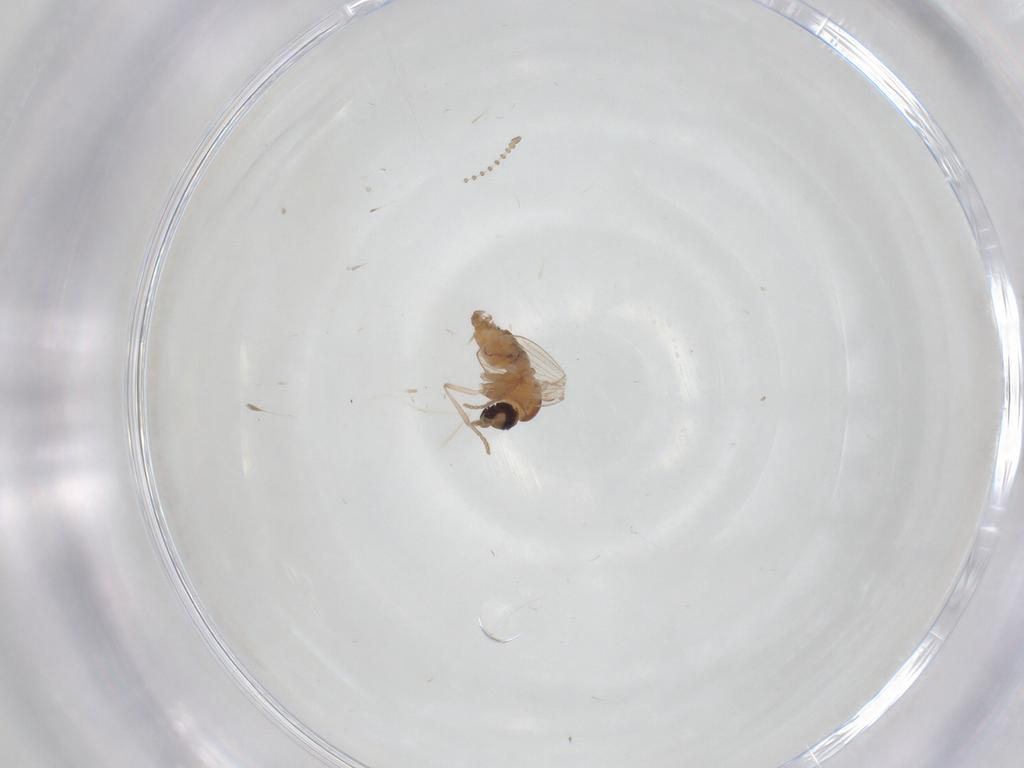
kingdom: Animalia
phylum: Arthropoda
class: Insecta
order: Diptera
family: Psychodidae
